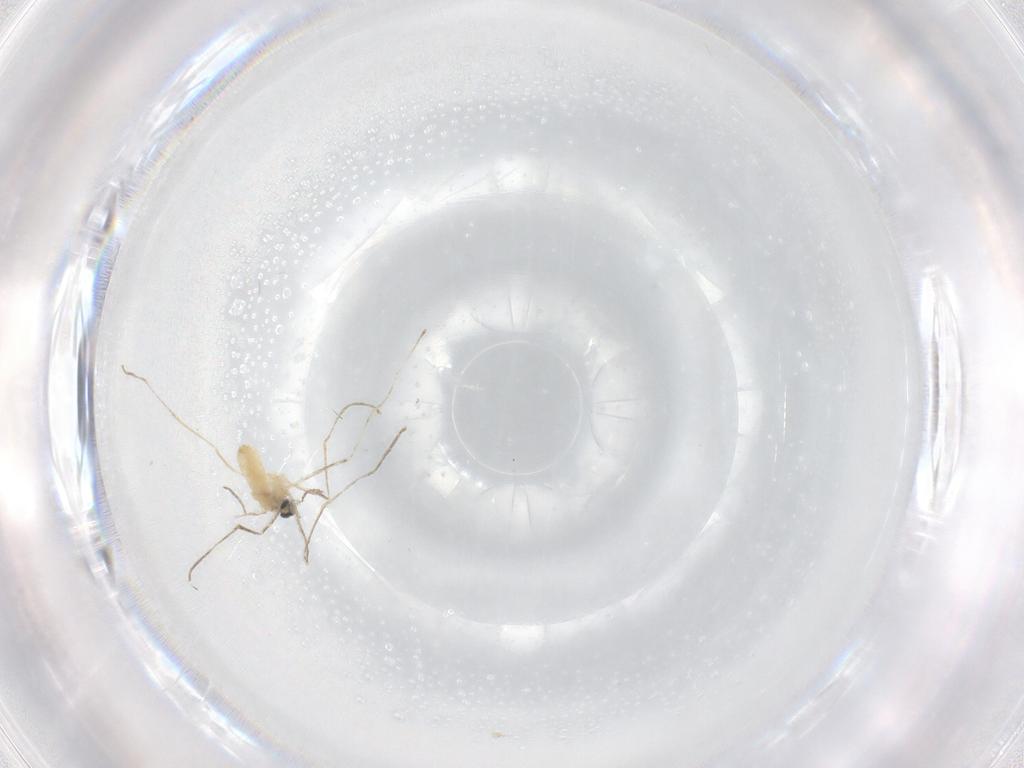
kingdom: Animalia
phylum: Arthropoda
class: Insecta
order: Diptera
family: Cecidomyiidae
